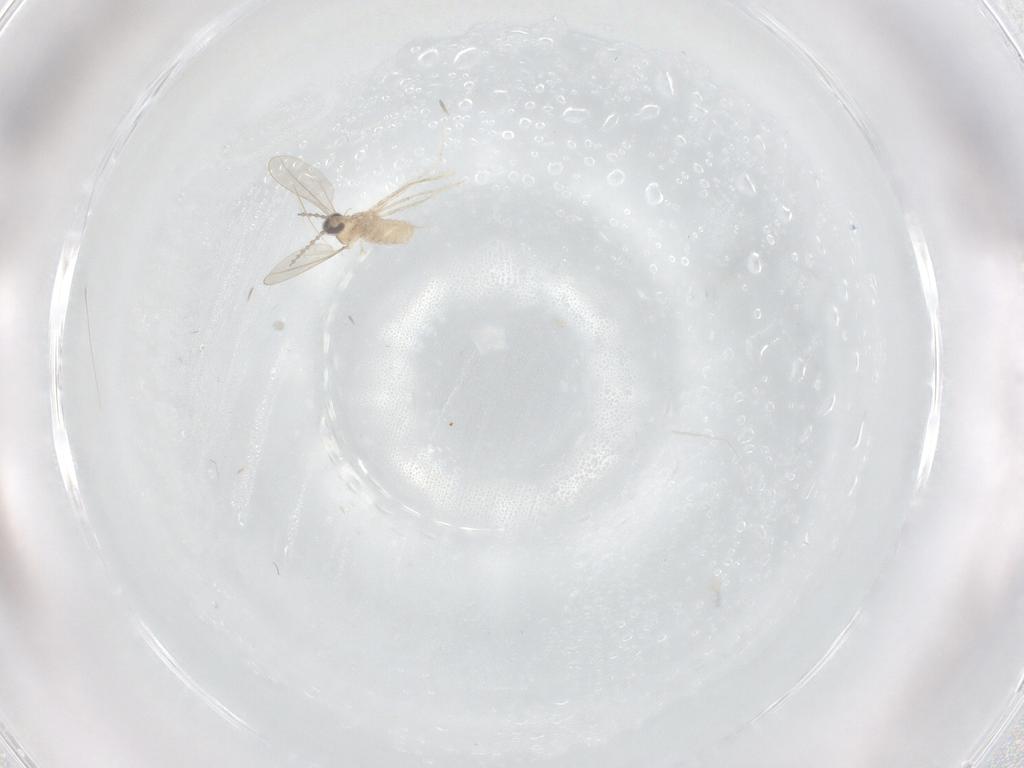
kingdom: Animalia
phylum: Arthropoda
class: Insecta
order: Diptera
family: Cecidomyiidae
